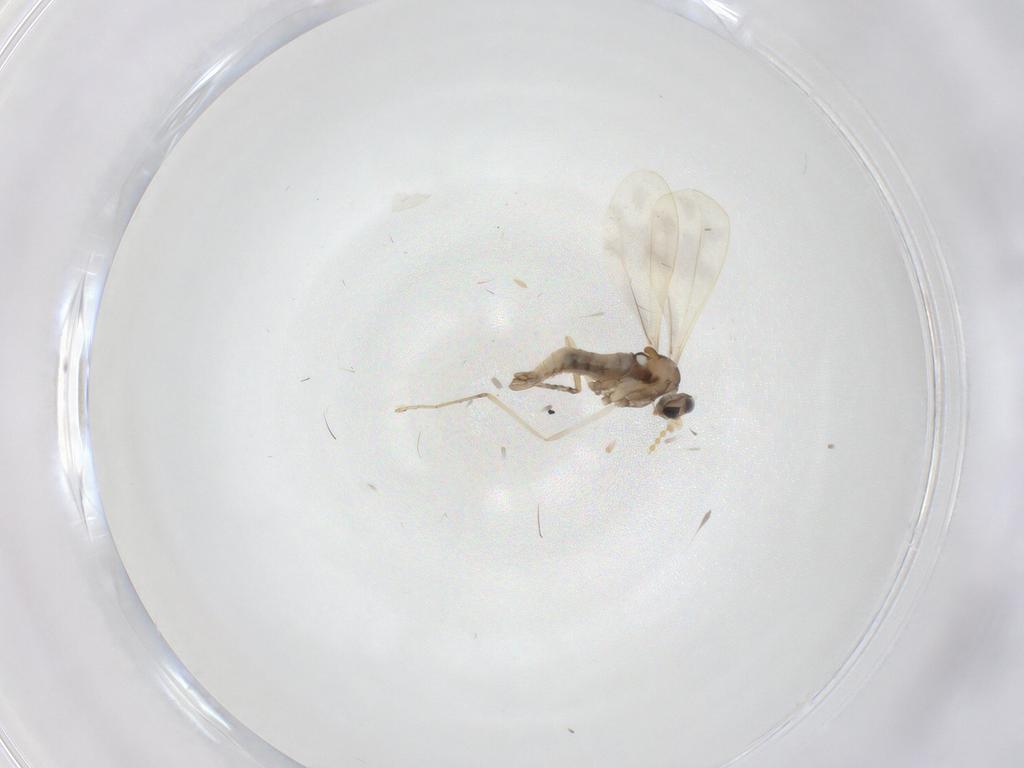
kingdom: Animalia
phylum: Arthropoda
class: Insecta
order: Diptera
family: Cecidomyiidae
